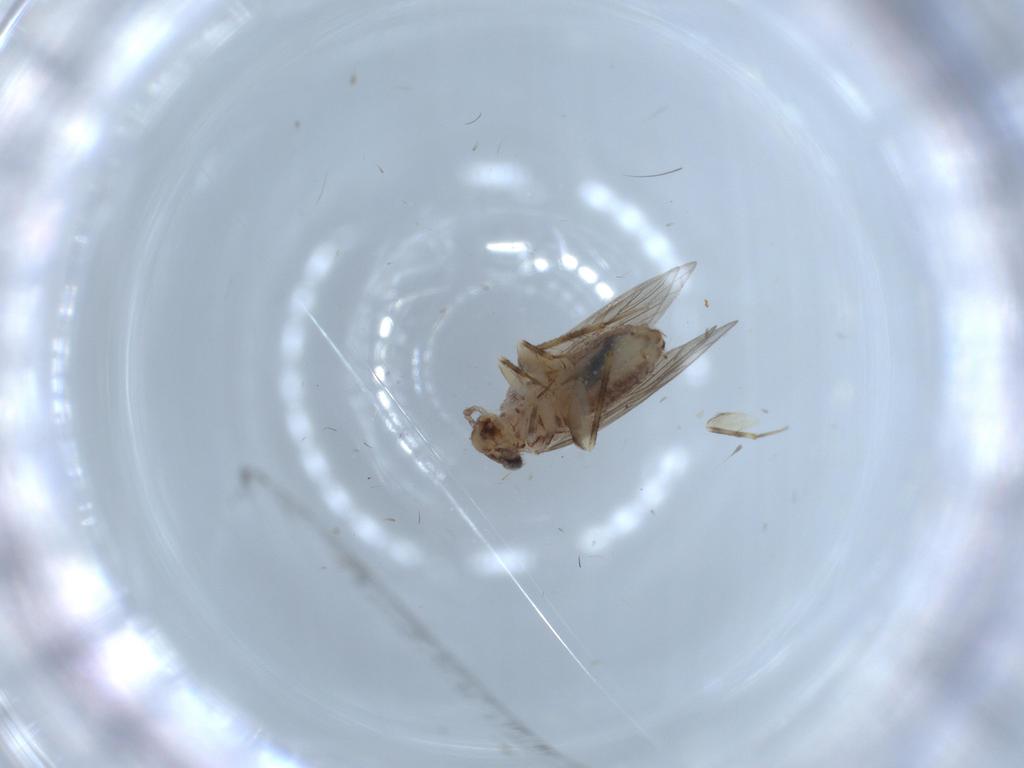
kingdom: Animalia
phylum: Arthropoda
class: Insecta
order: Psocodea
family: Lepidopsocidae
